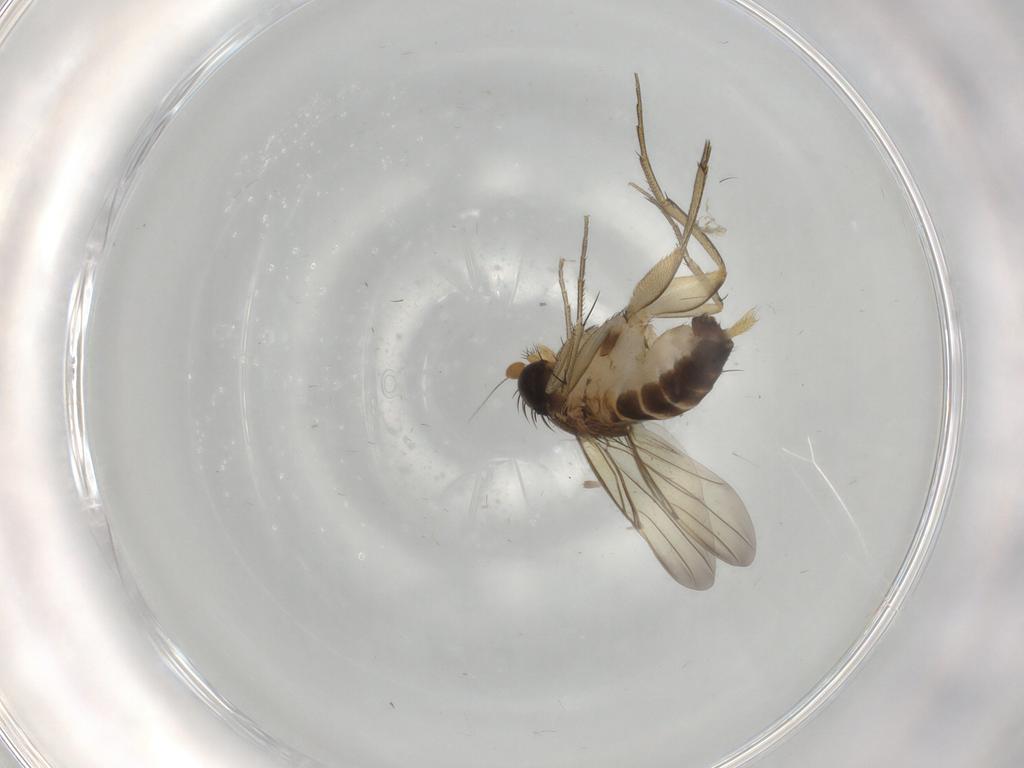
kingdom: Animalia
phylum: Arthropoda
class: Insecta
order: Diptera
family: Phoridae
